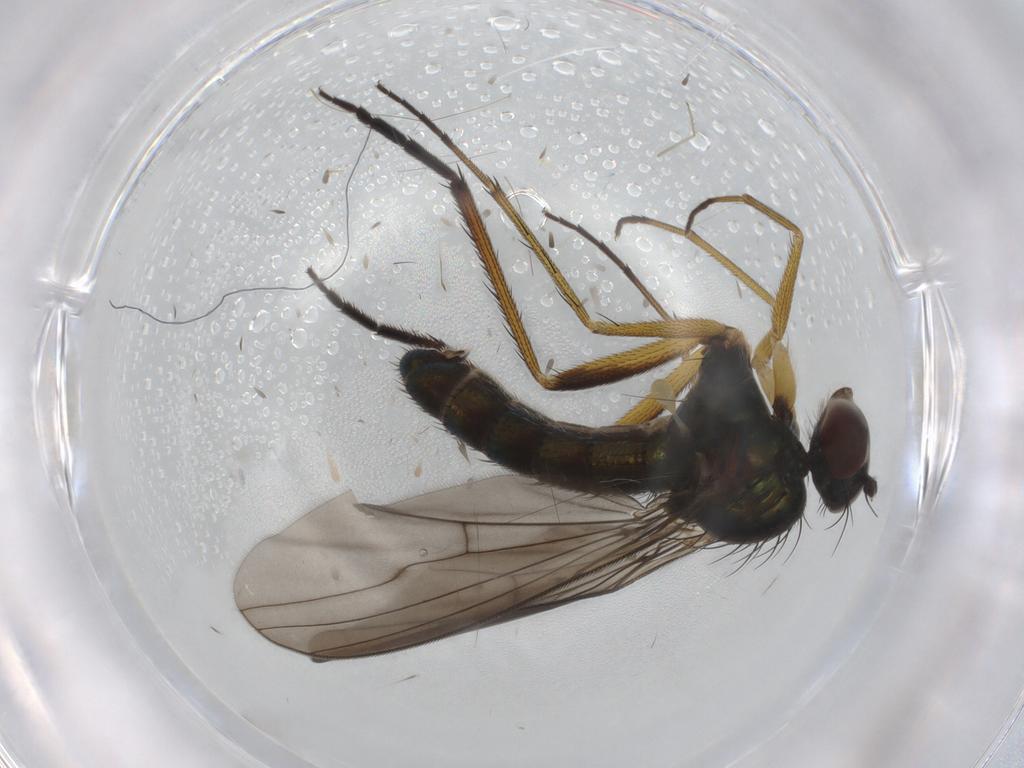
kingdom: Animalia
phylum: Arthropoda
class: Insecta
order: Diptera
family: Dolichopodidae
